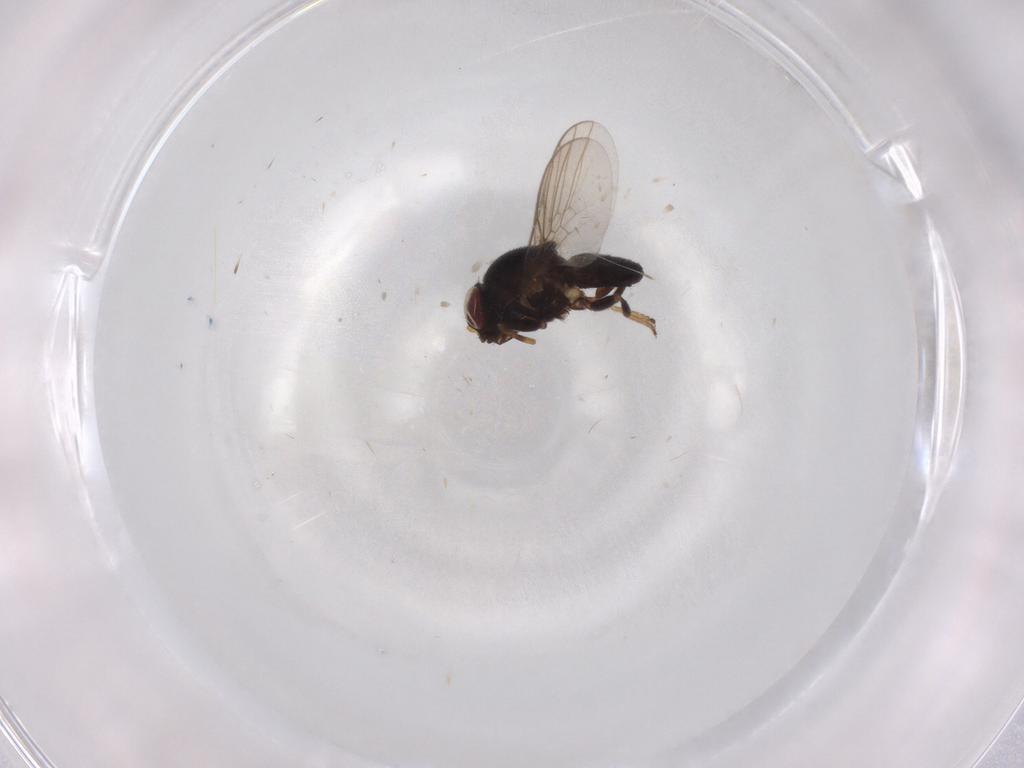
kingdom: Animalia
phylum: Arthropoda
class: Insecta
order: Diptera
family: Chloropidae
